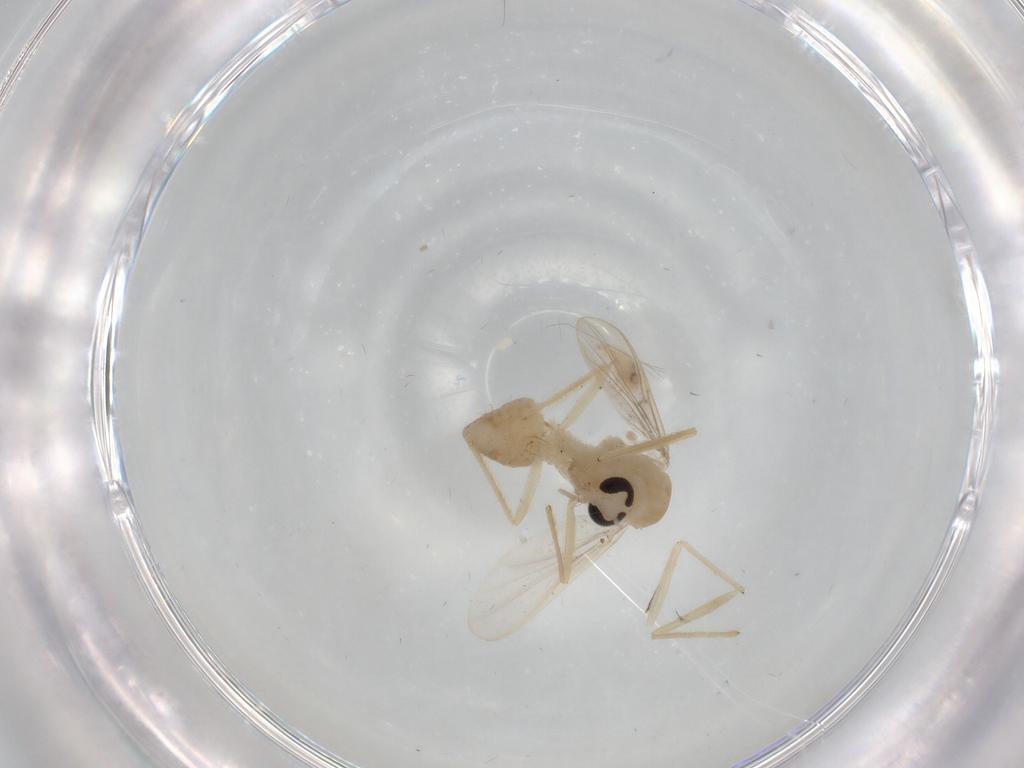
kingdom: Animalia
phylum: Arthropoda
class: Insecta
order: Diptera
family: Chironomidae
